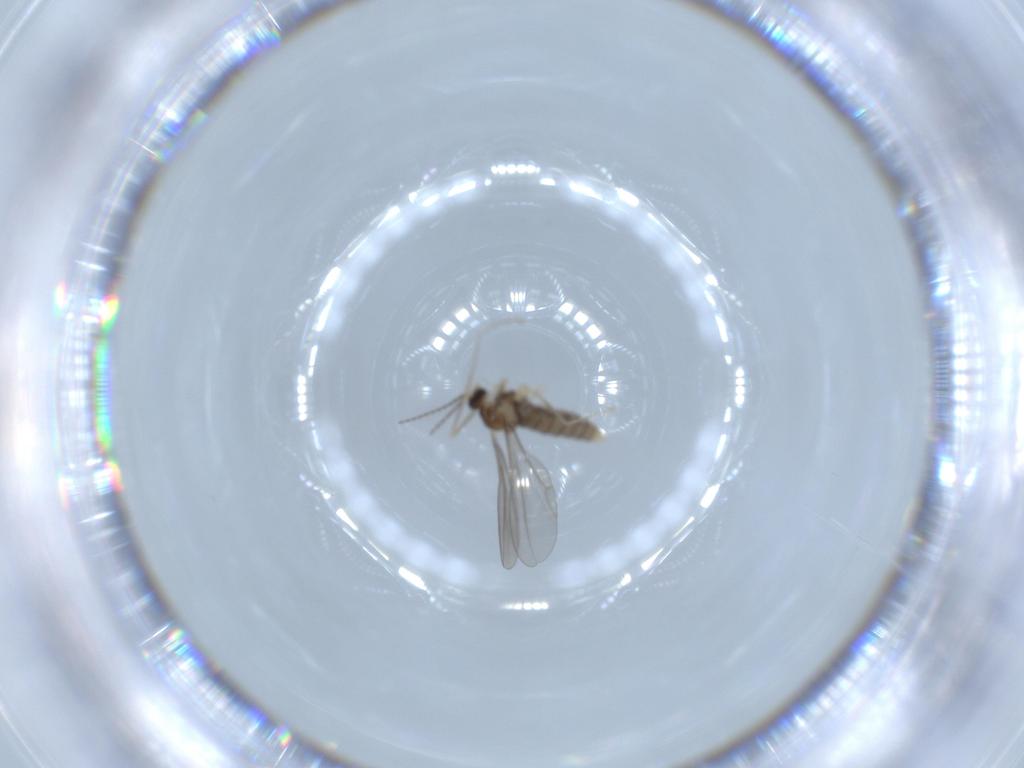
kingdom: Animalia
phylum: Arthropoda
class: Insecta
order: Diptera
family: Cecidomyiidae
